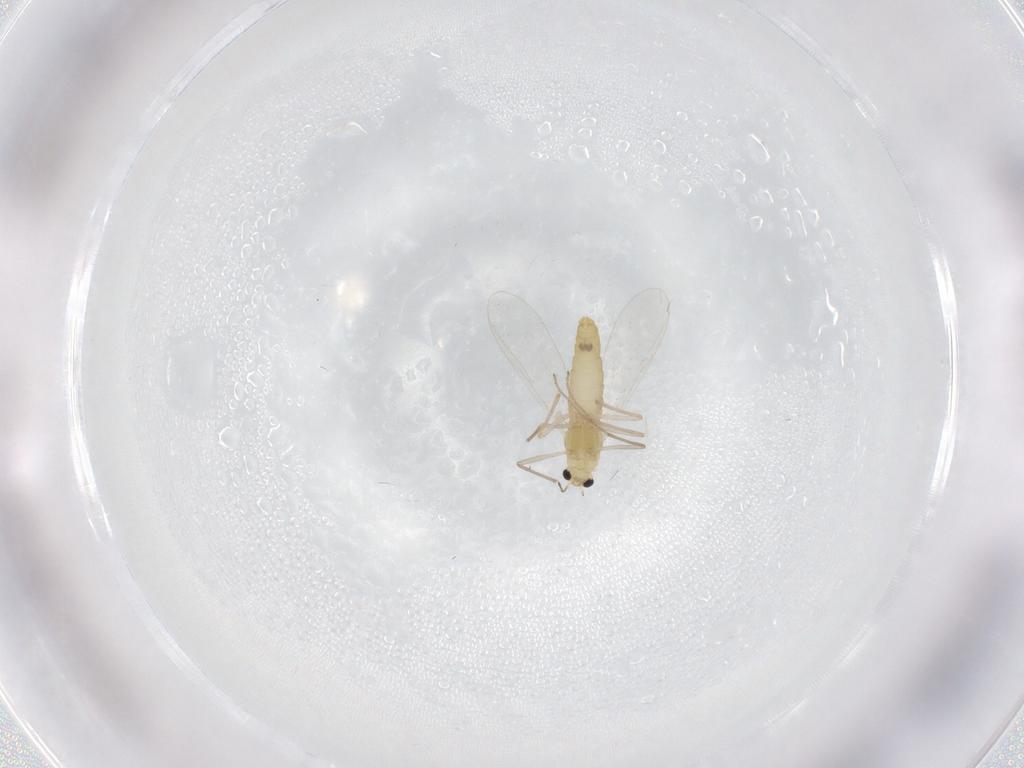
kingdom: Animalia
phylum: Arthropoda
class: Insecta
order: Diptera
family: Chironomidae
